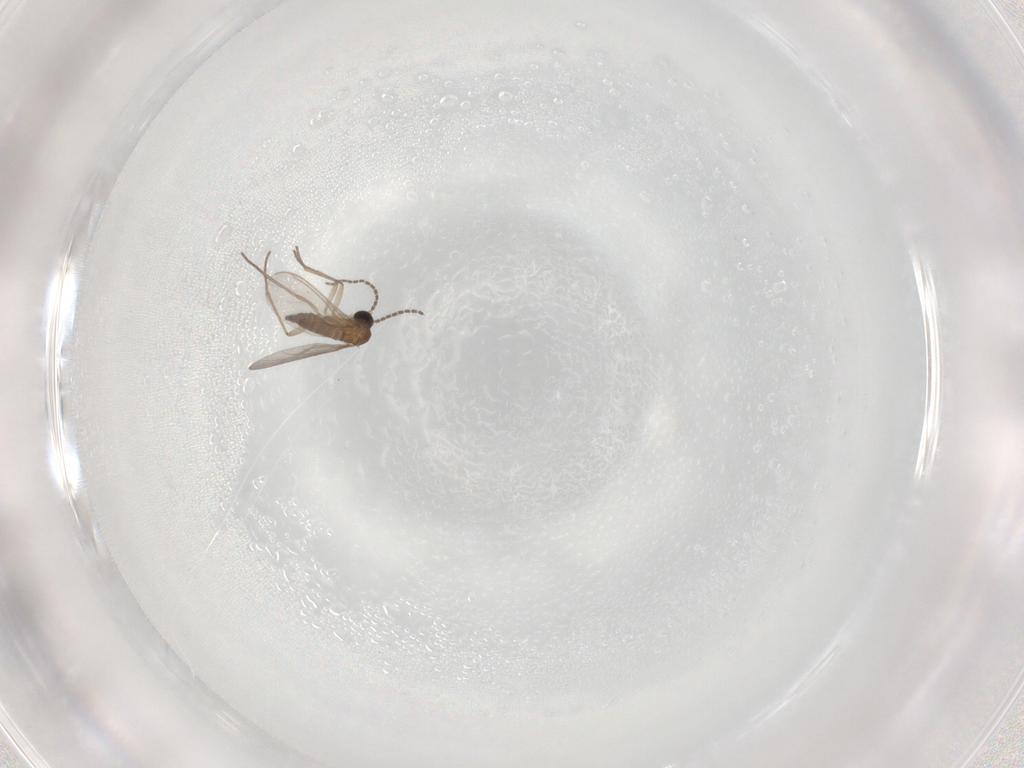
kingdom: Animalia
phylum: Arthropoda
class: Insecta
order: Diptera
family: Sciaridae
